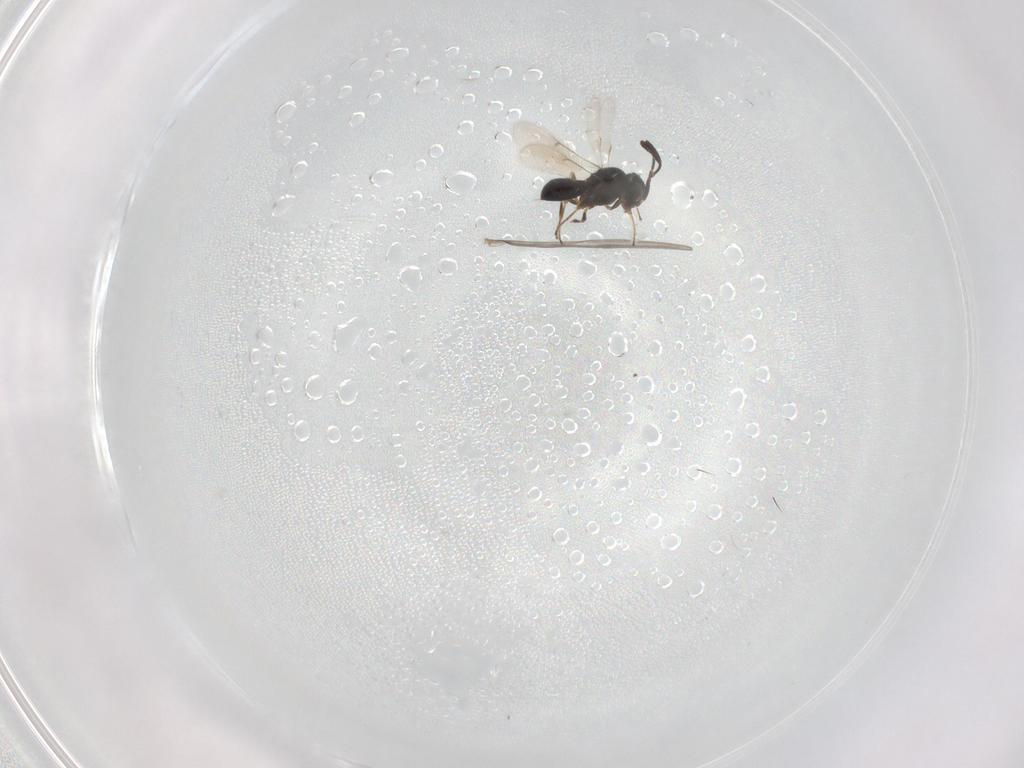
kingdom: Animalia
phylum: Arthropoda
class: Insecta
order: Hymenoptera
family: Scelionidae
